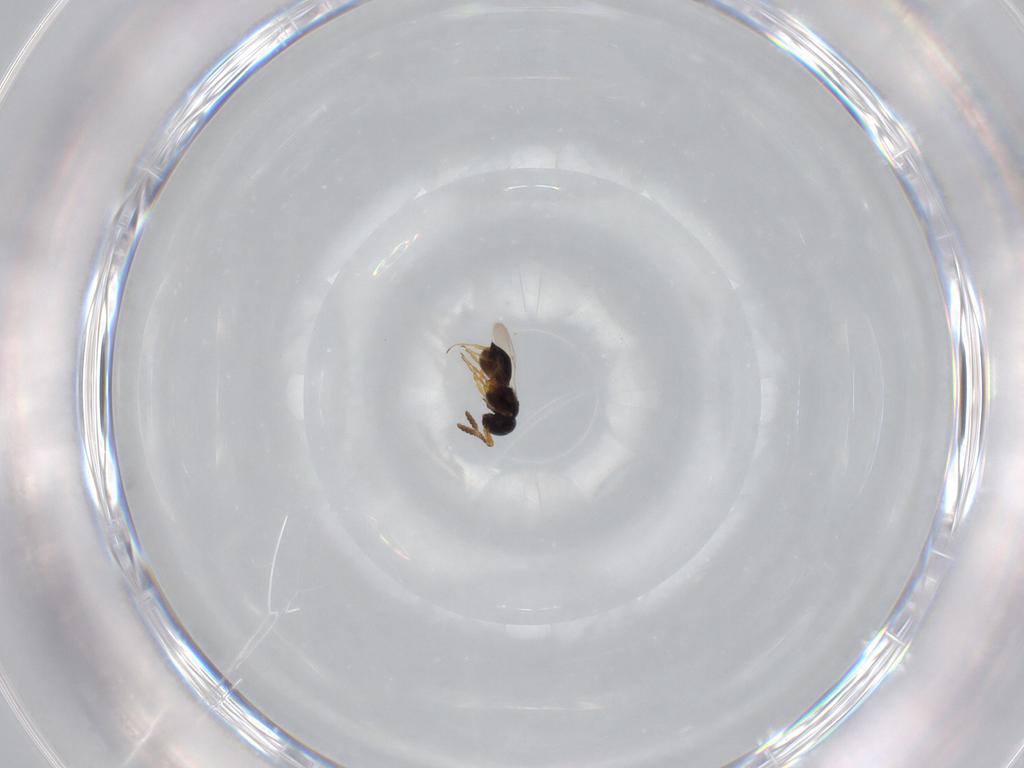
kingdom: Animalia
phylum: Arthropoda
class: Insecta
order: Hymenoptera
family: Scelionidae
